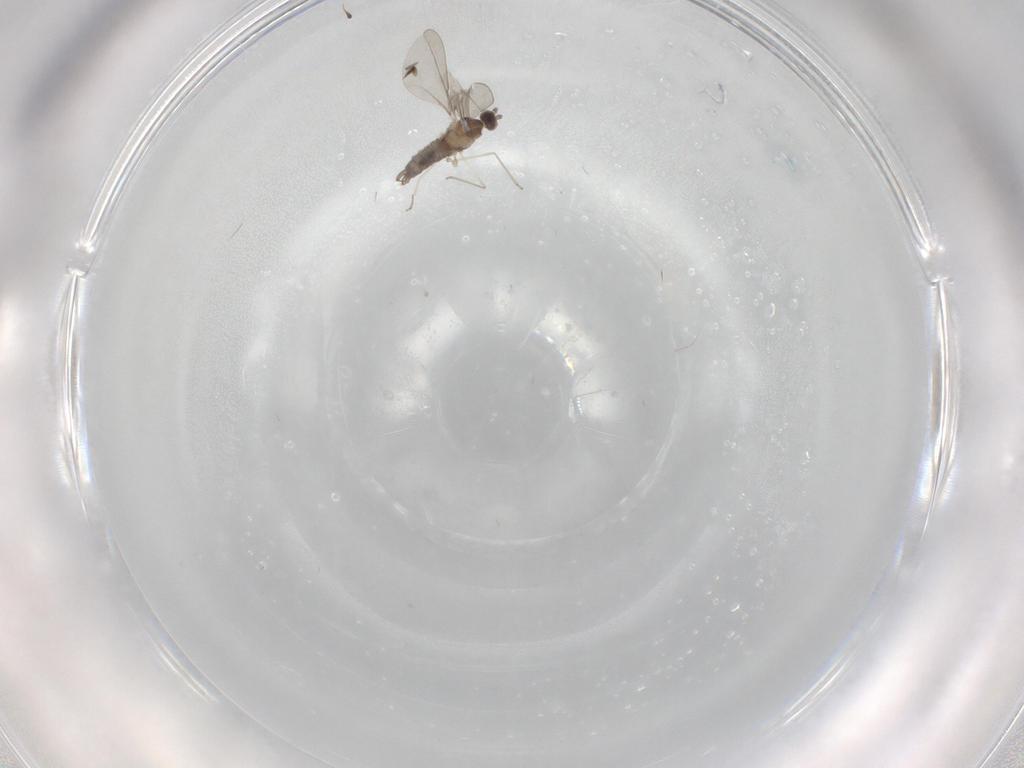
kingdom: Animalia
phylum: Arthropoda
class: Insecta
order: Diptera
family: Cecidomyiidae
